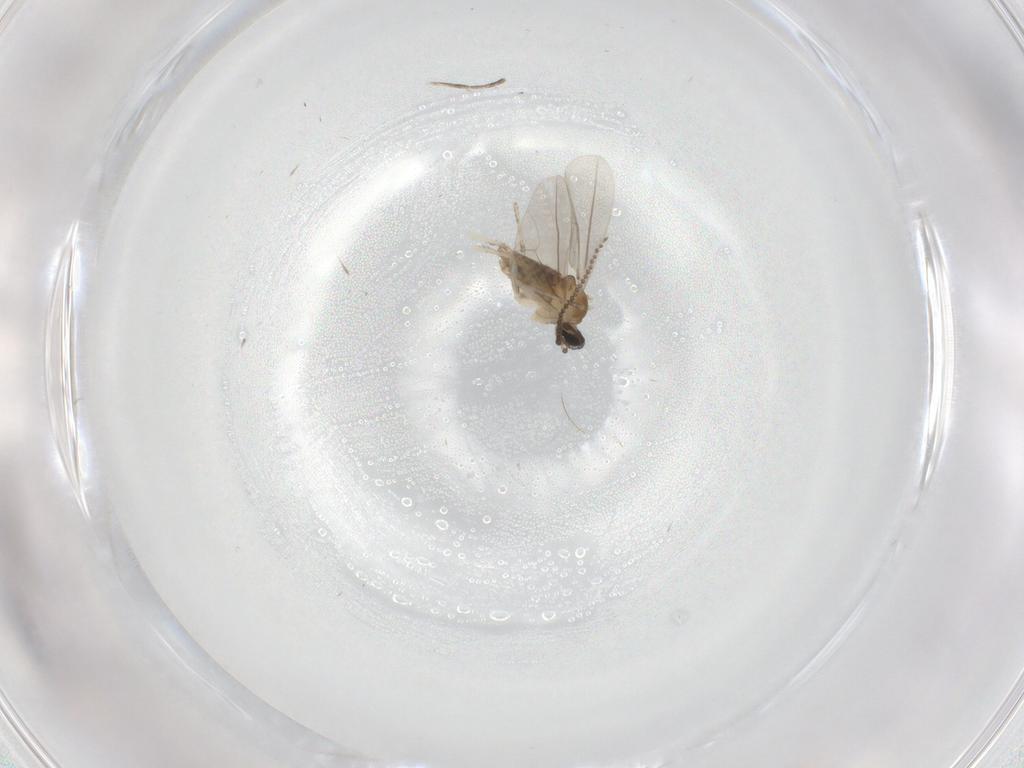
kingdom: Animalia
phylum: Arthropoda
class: Insecta
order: Diptera
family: Cecidomyiidae
